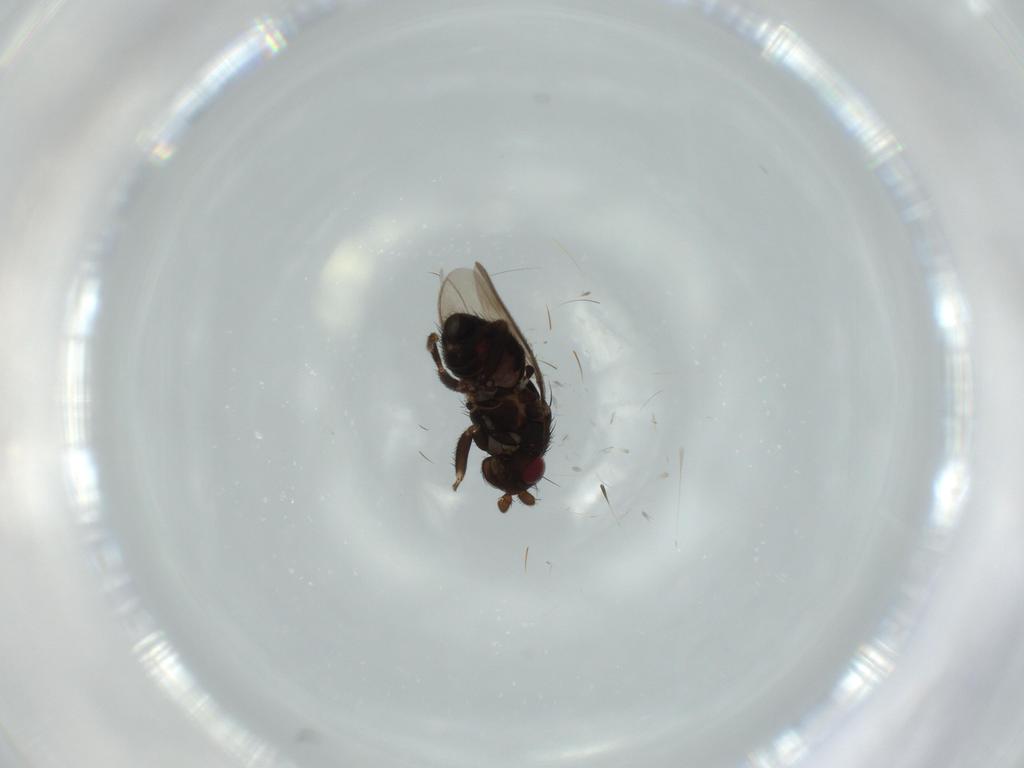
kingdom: Animalia
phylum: Arthropoda
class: Insecta
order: Diptera
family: Sphaeroceridae
